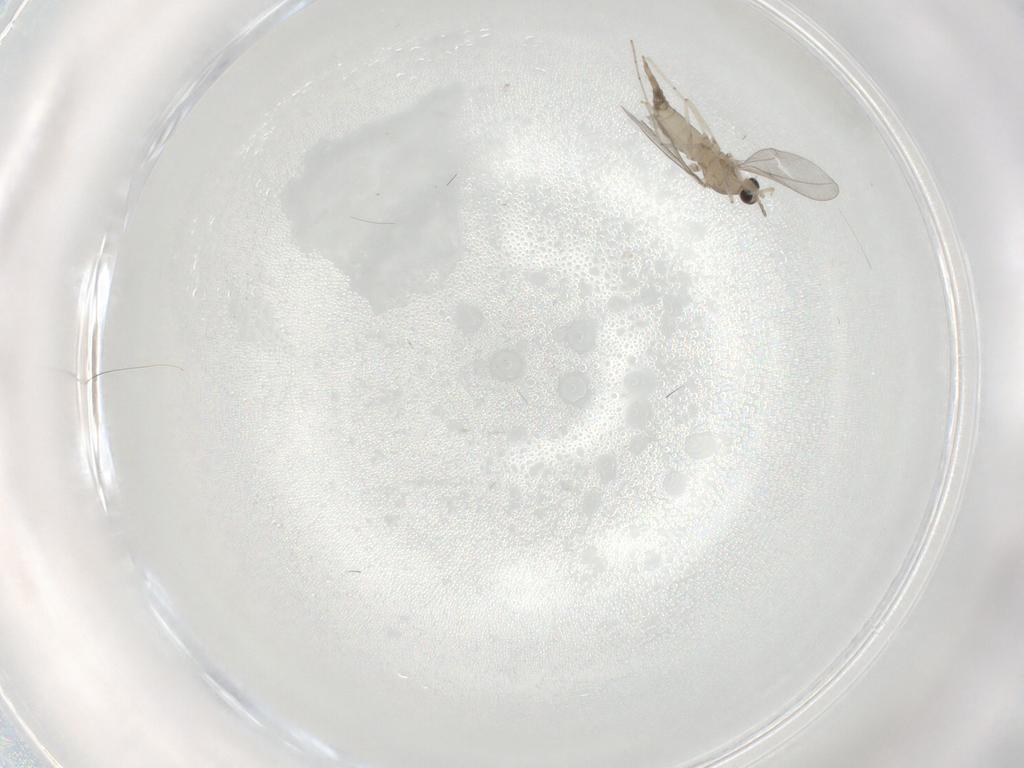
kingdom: Animalia
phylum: Arthropoda
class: Insecta
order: Diptera
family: Cecidomyiidae
